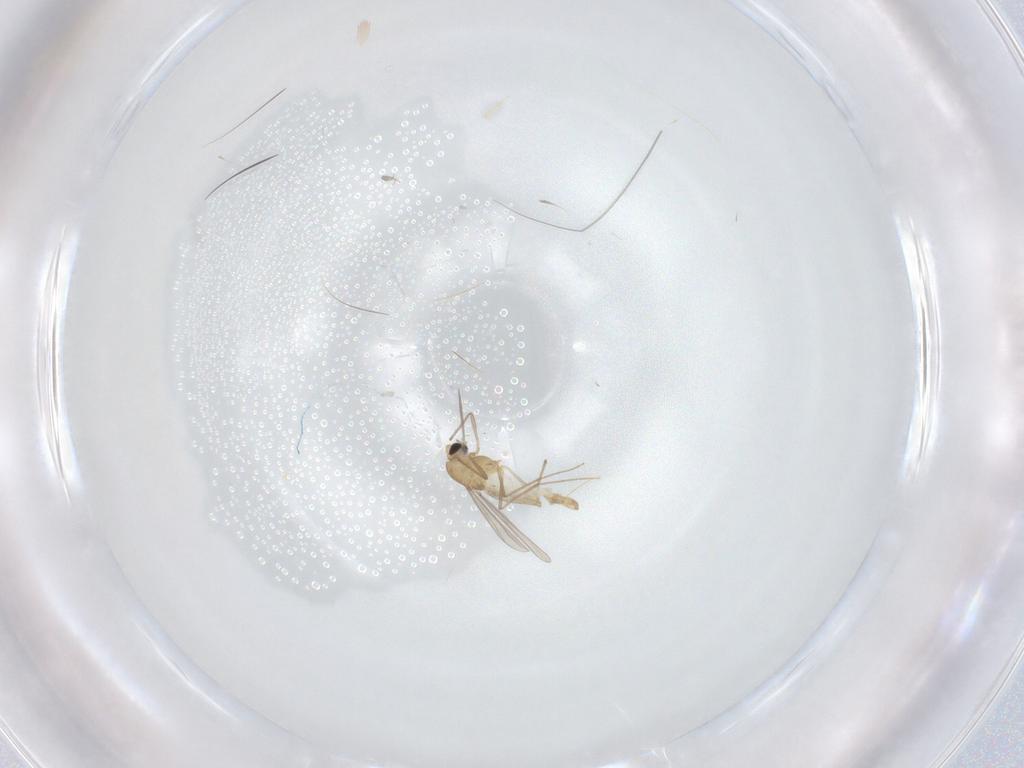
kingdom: Animalia
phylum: Arthropoda
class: Insecta
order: Diptera
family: Chironomidae
